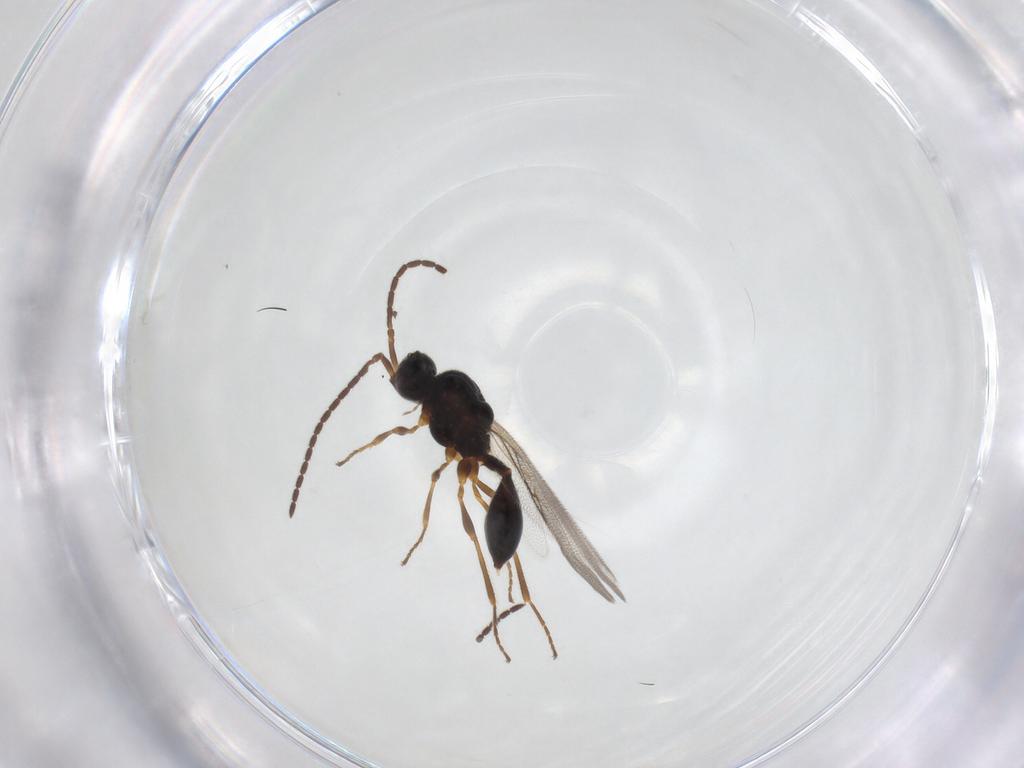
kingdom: Animalia
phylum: Arthropoda
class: Insecta
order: Hymenoptera
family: Diapriidae
